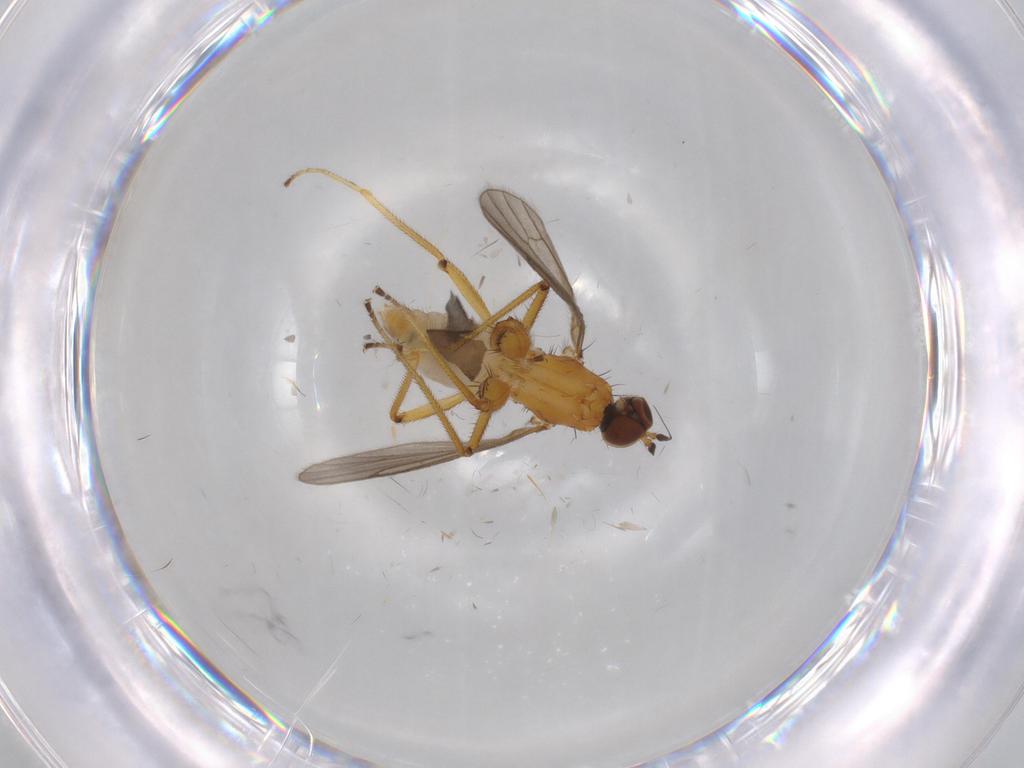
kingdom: Animalia
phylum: Arthropoda
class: Insecta
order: Diptera
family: Empididae
